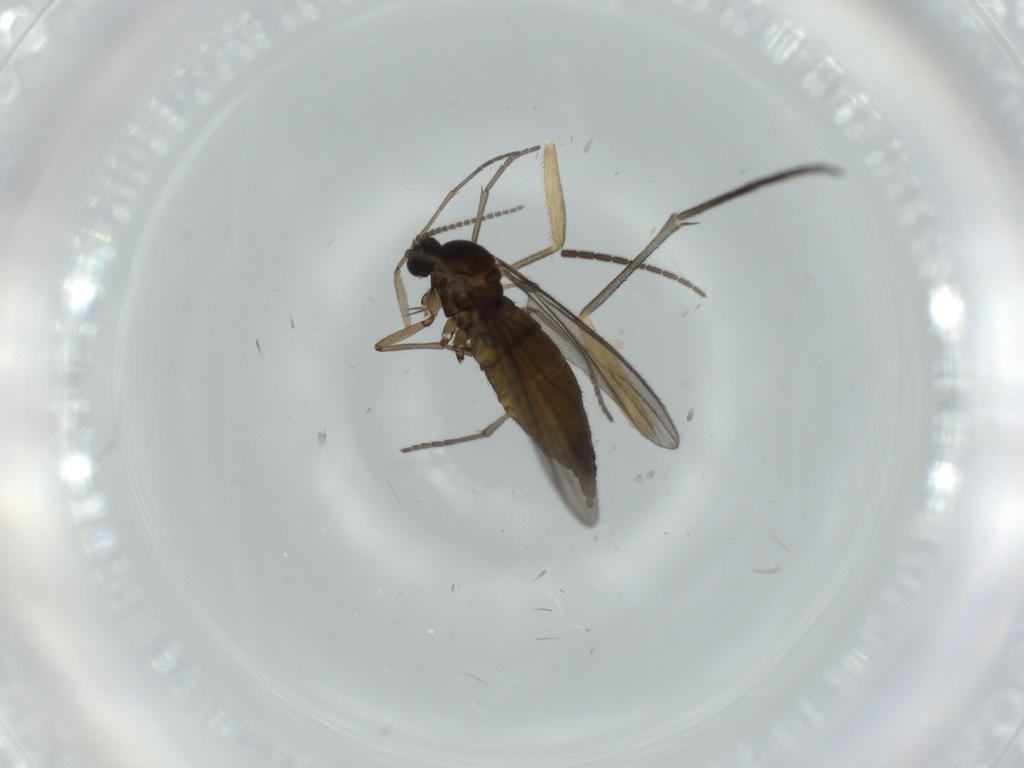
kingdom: Animalia
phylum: Arthropoda
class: Insecta
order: Diptera
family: Sciaridae
